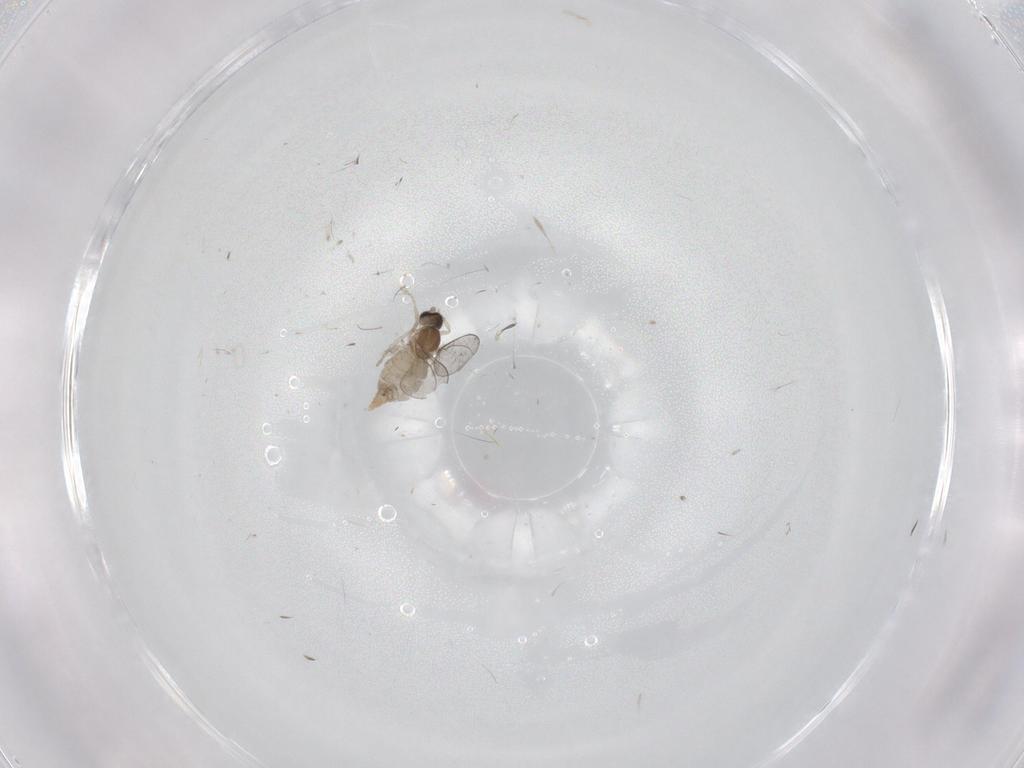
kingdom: Animalia
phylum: Arthropoda
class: Insecta
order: Diptera
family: Cecidomyiidae
